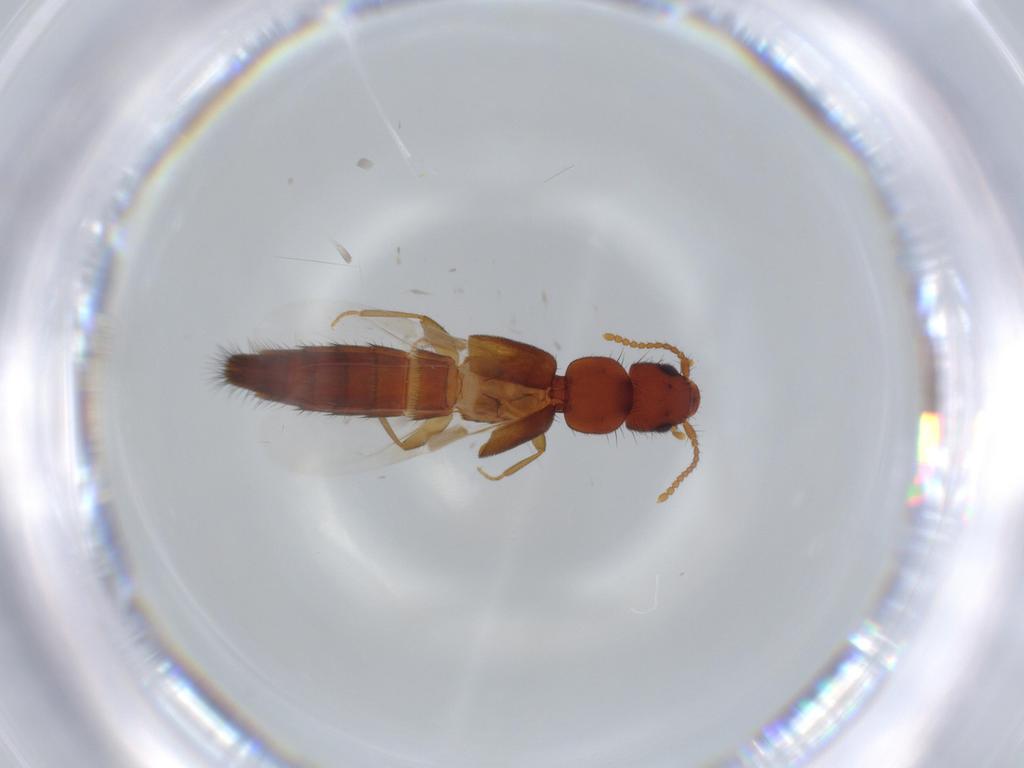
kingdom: Animalia
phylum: Arthropoda
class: Insecta
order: Coleoptera
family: Staphylinidae
